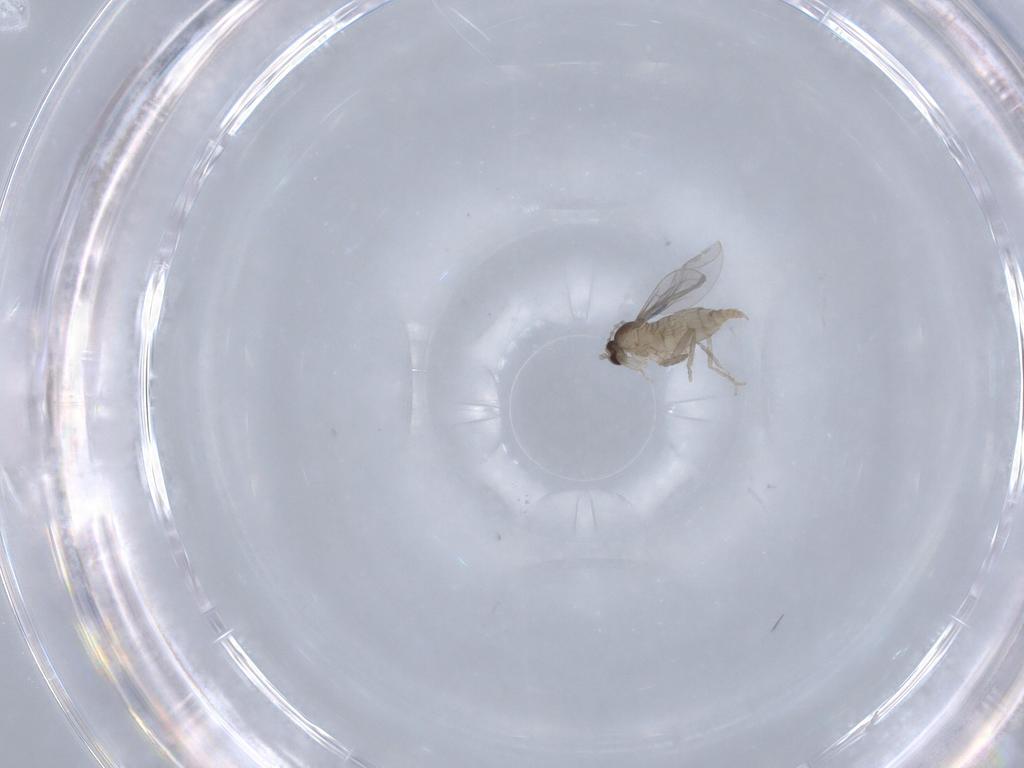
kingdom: Animalia
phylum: Arthropoda
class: Insecta
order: Diptera
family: Cecidomyiidae
